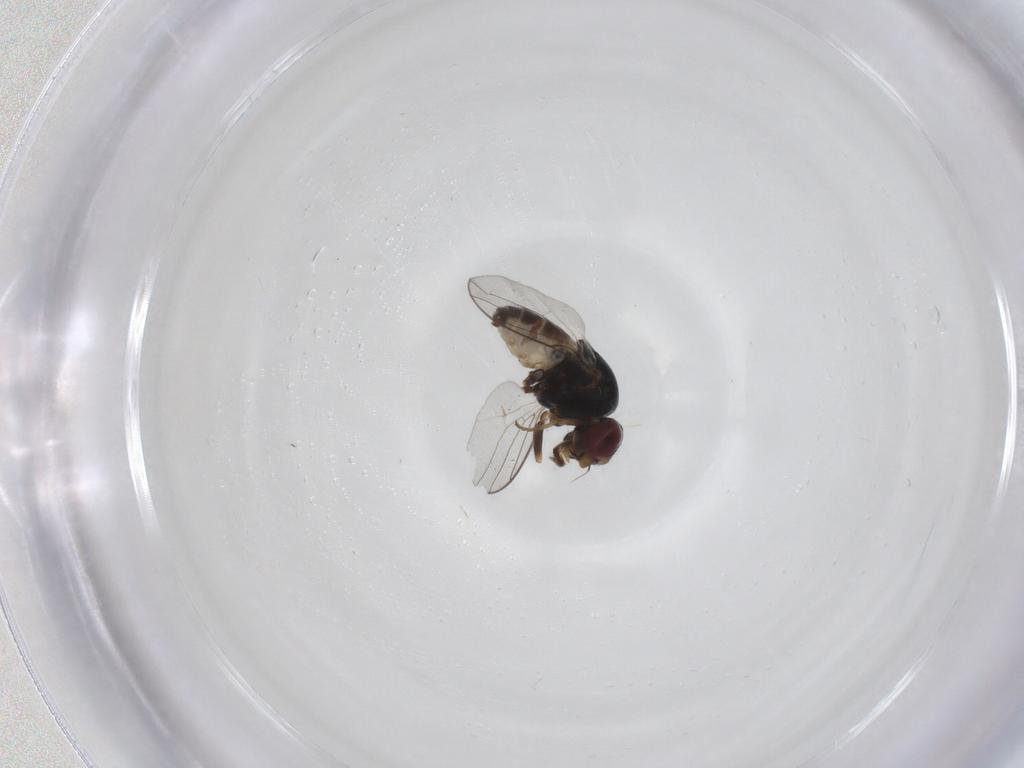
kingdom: Animalia
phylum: Arthropoda
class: Insecta
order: Diptera
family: Chloropidae
